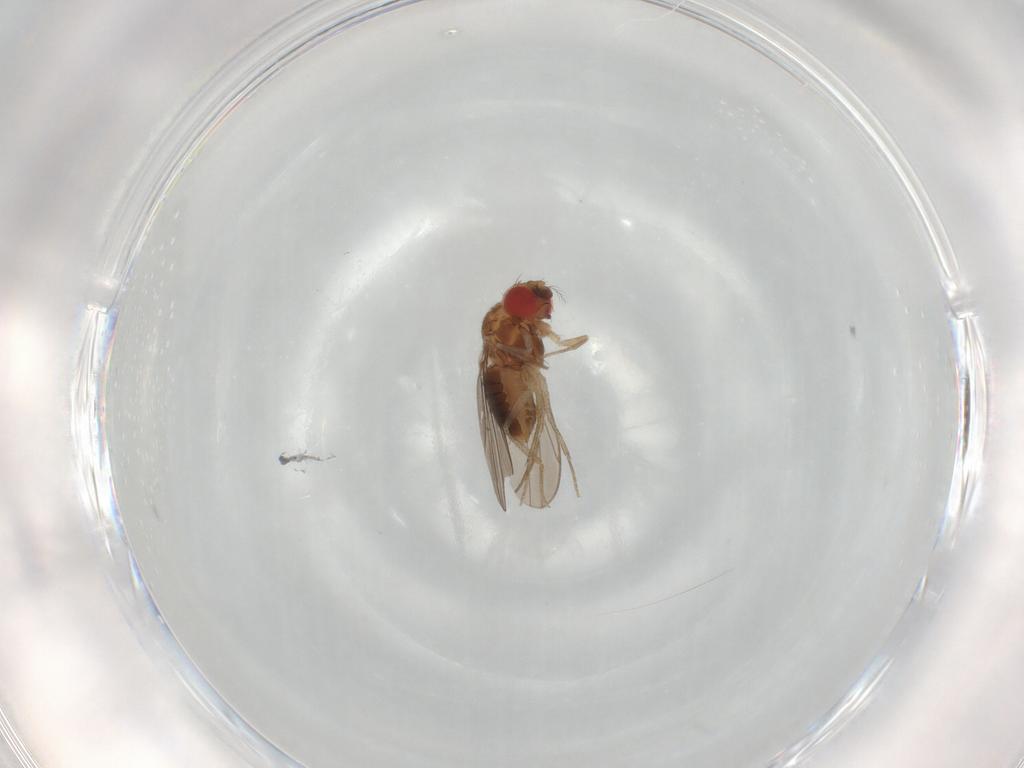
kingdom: Animalia
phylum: Arthropoda
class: Insecta
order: Diptera
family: Drosophilidae
